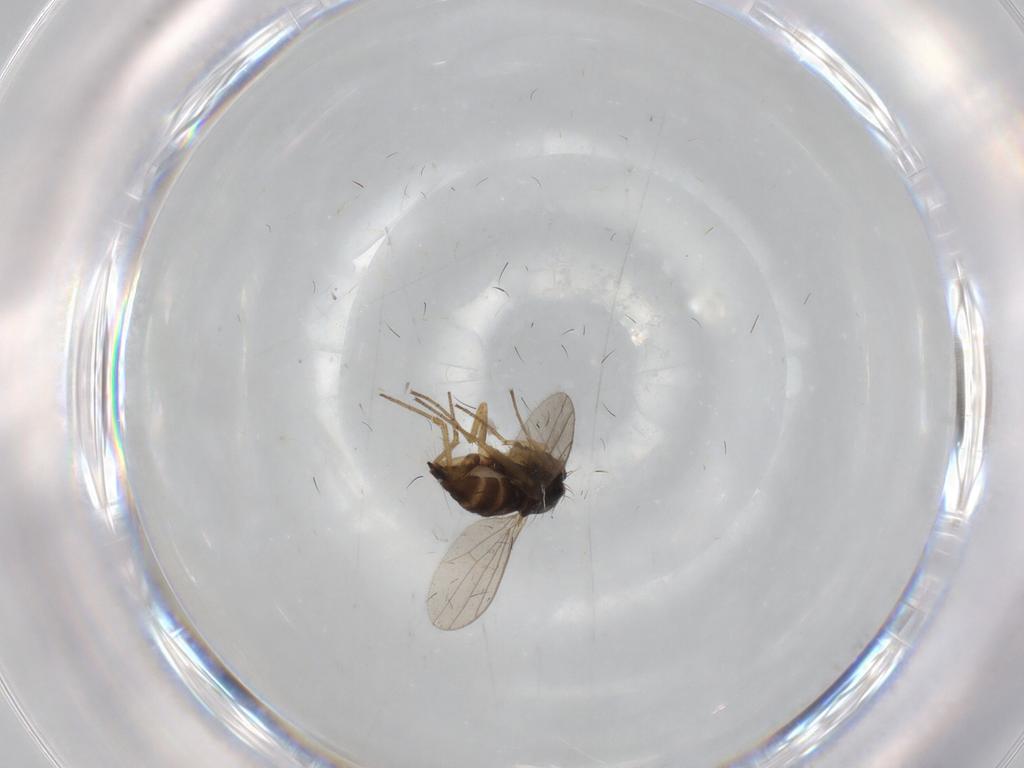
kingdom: Animalia
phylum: Arthropoda
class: Insecta
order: Diptera
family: Dolichopodidae
